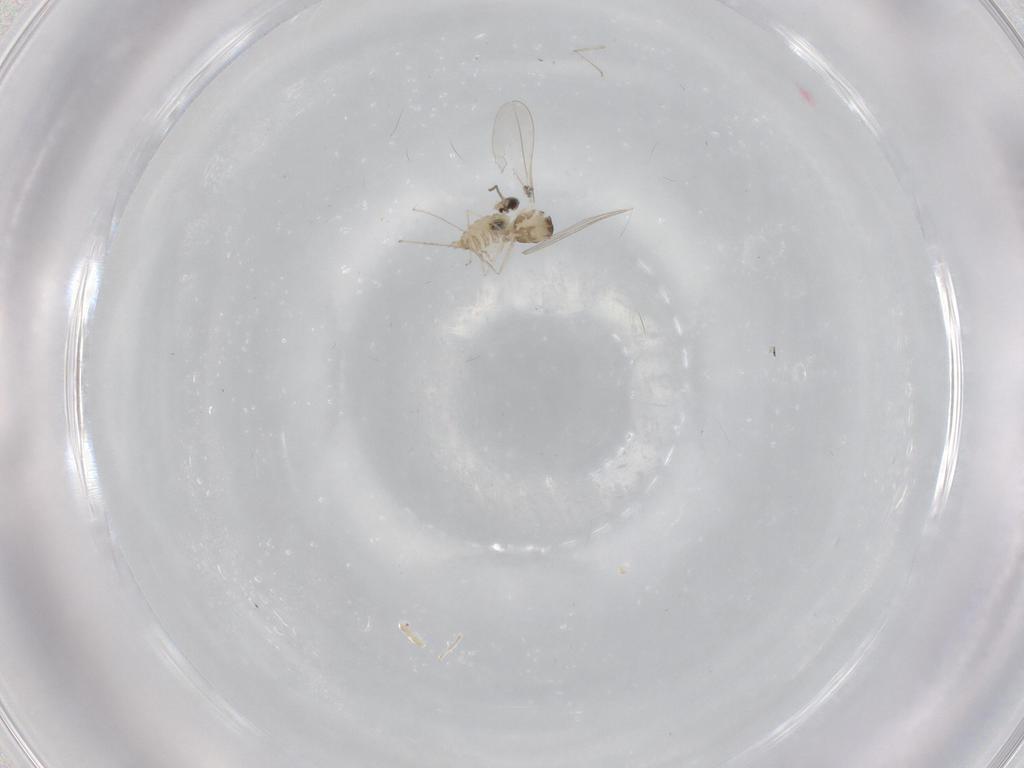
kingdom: Animalia
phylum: Arthropoda
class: Insecta
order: Diptera
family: Cecidomyiidae
